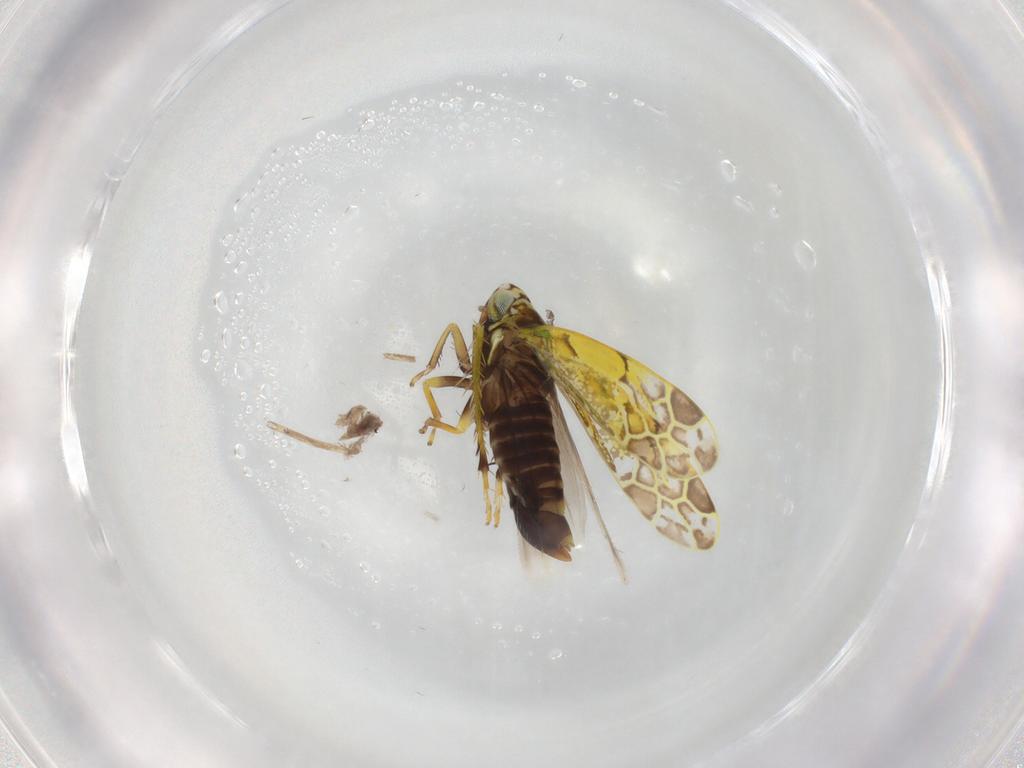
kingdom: Animalia
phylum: Arthropoda
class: Insecta
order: Hemiptera
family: Cicadellidae
